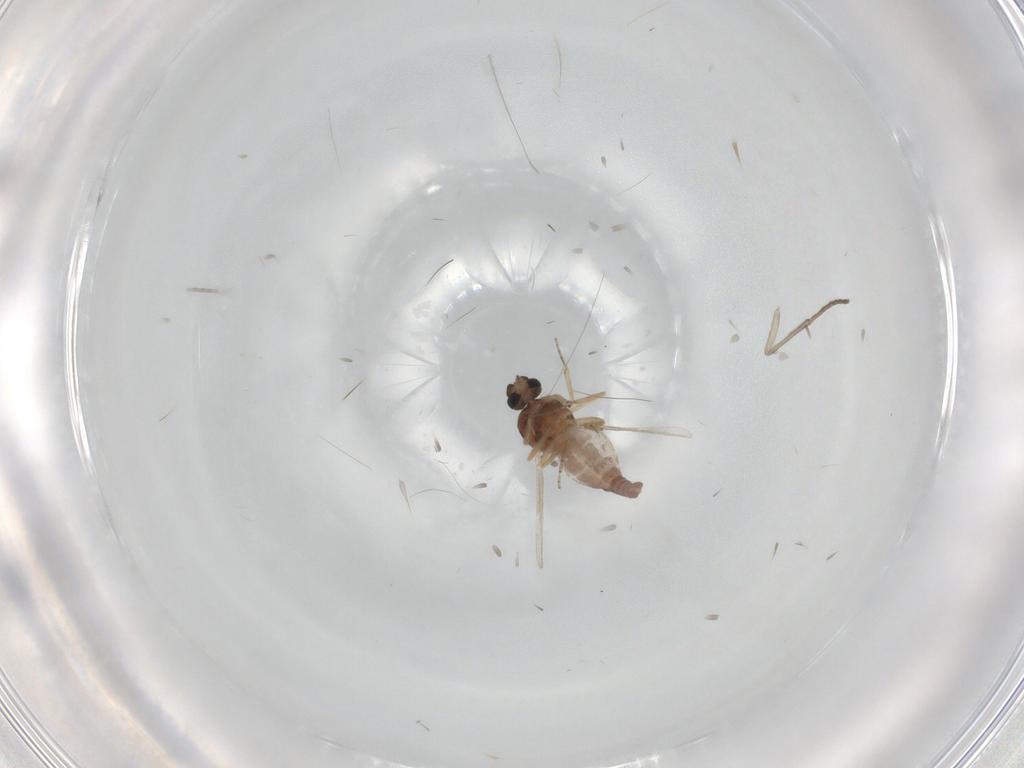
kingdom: Animalia
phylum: Arthropoda
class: Insecta
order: Diptera
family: Ceratopogonidae
